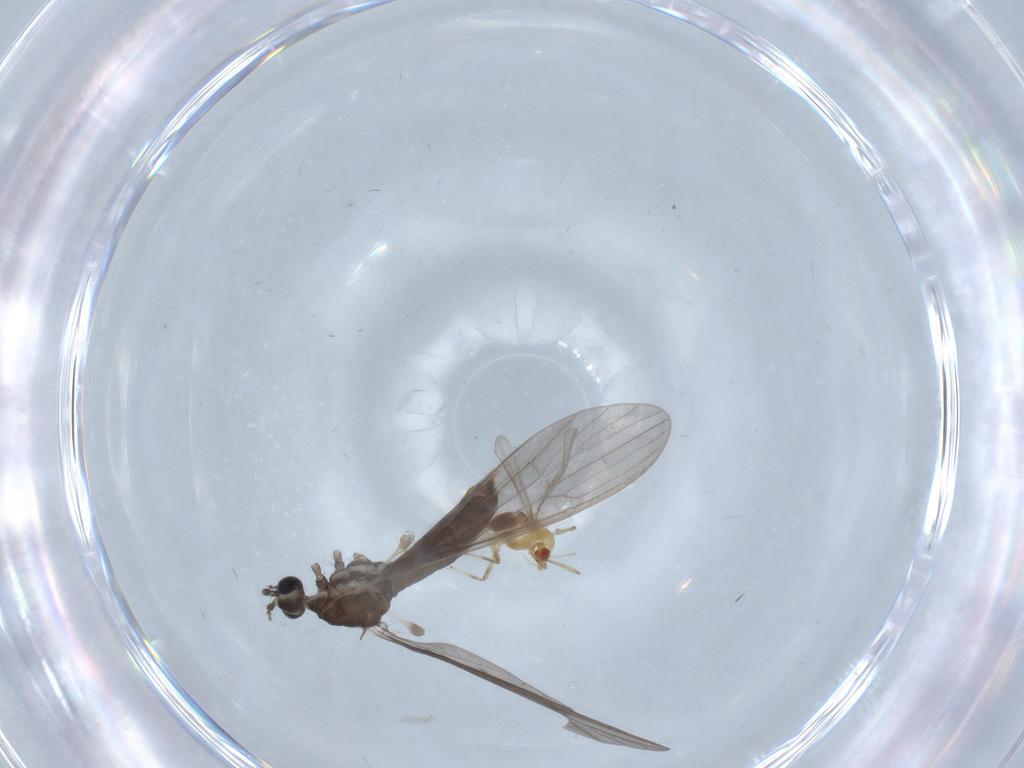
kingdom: Animalia
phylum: Arthropoda
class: Insecta
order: Diptera
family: Limoniidae
